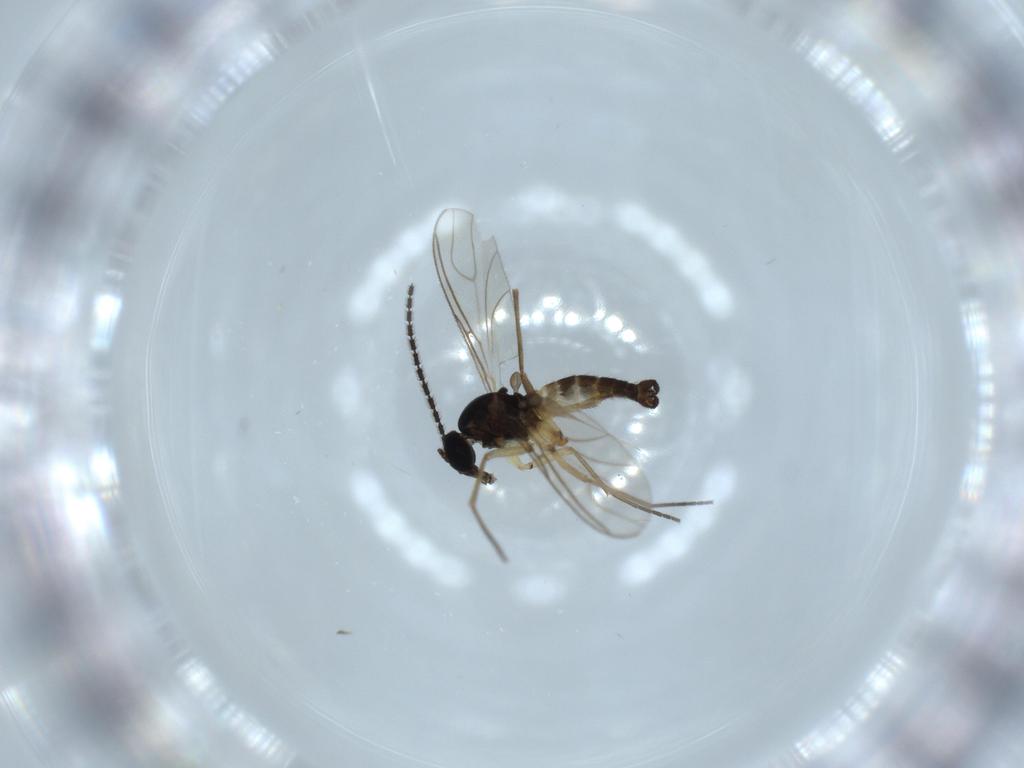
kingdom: Animalia
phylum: Arthropoda
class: Insecta
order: Diptera
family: Sciaridae
